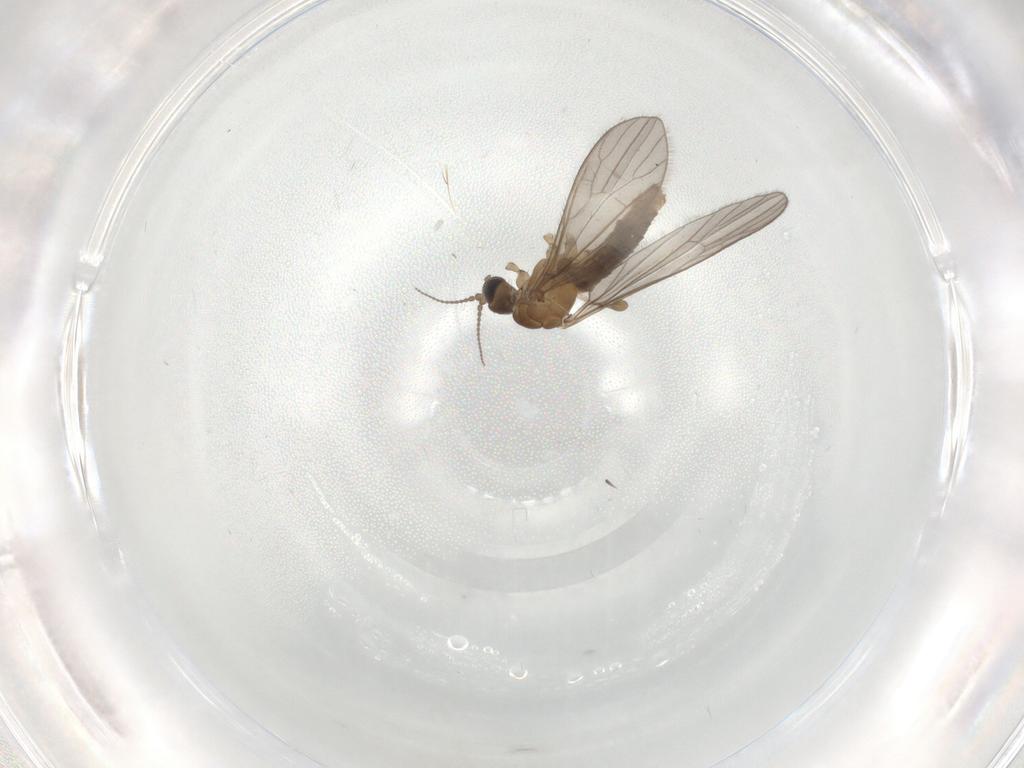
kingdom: Animalia
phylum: Arthropoda
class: Insecta
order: Diptera
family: Limoniidae
